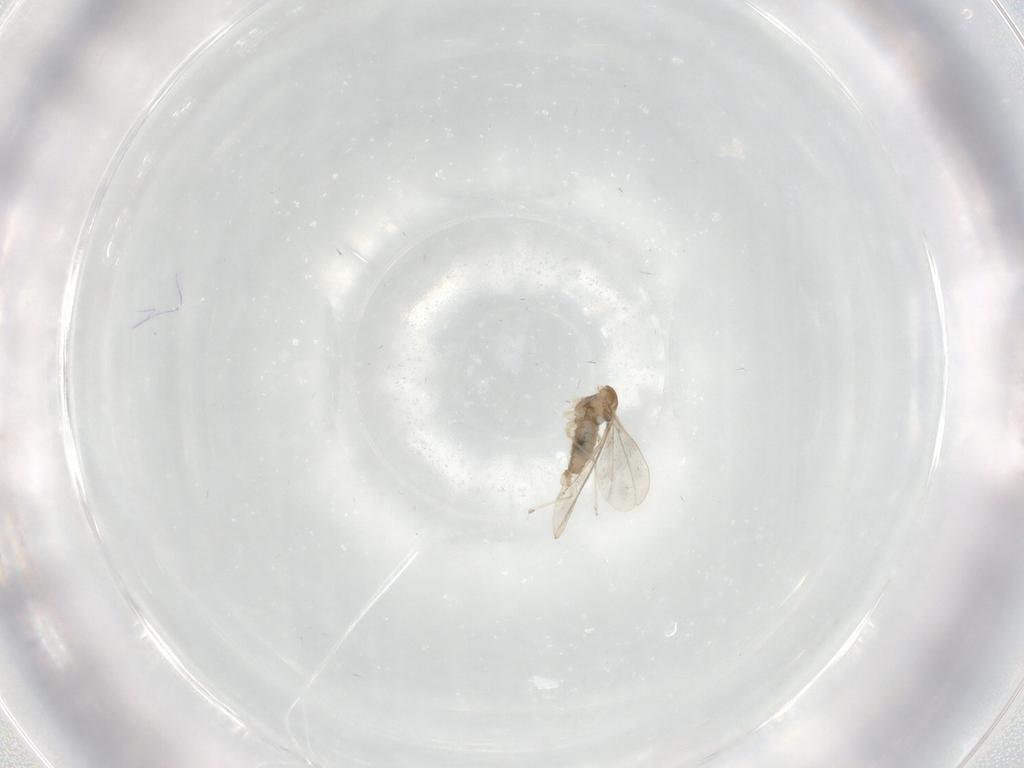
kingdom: Animalia
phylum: Arthropoda
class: Insecta
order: Diptera
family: Cecidomyiidae
